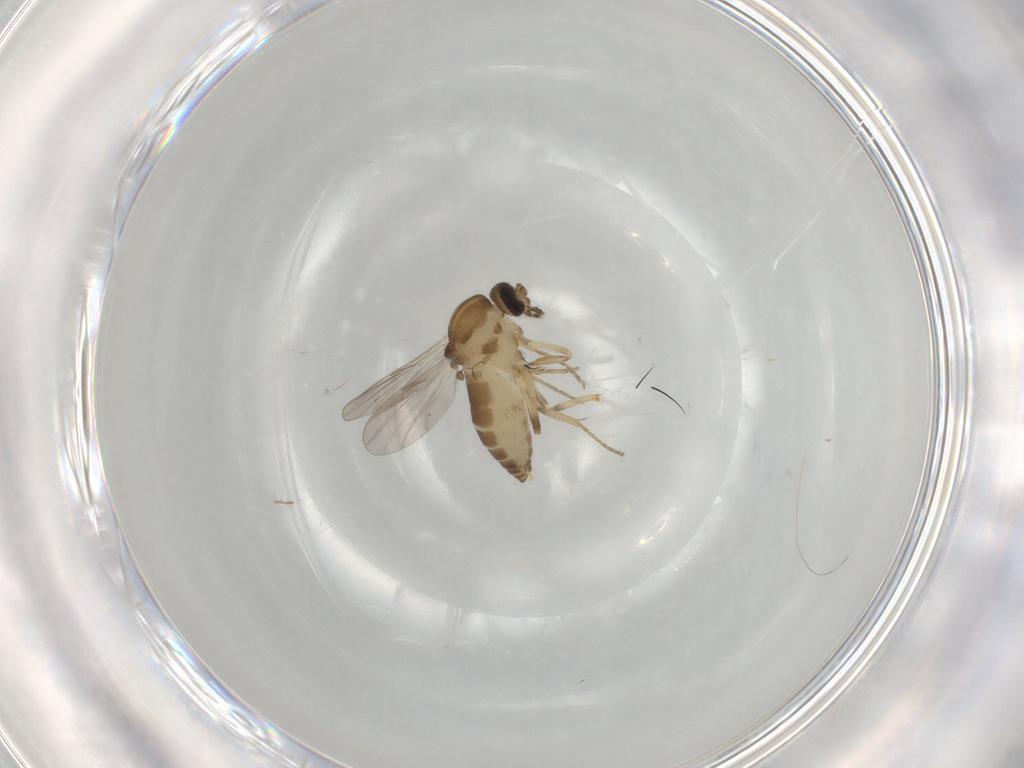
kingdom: Animalia
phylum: Arthropoda
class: Insecta
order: Diptera
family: Ceratopogonidae
